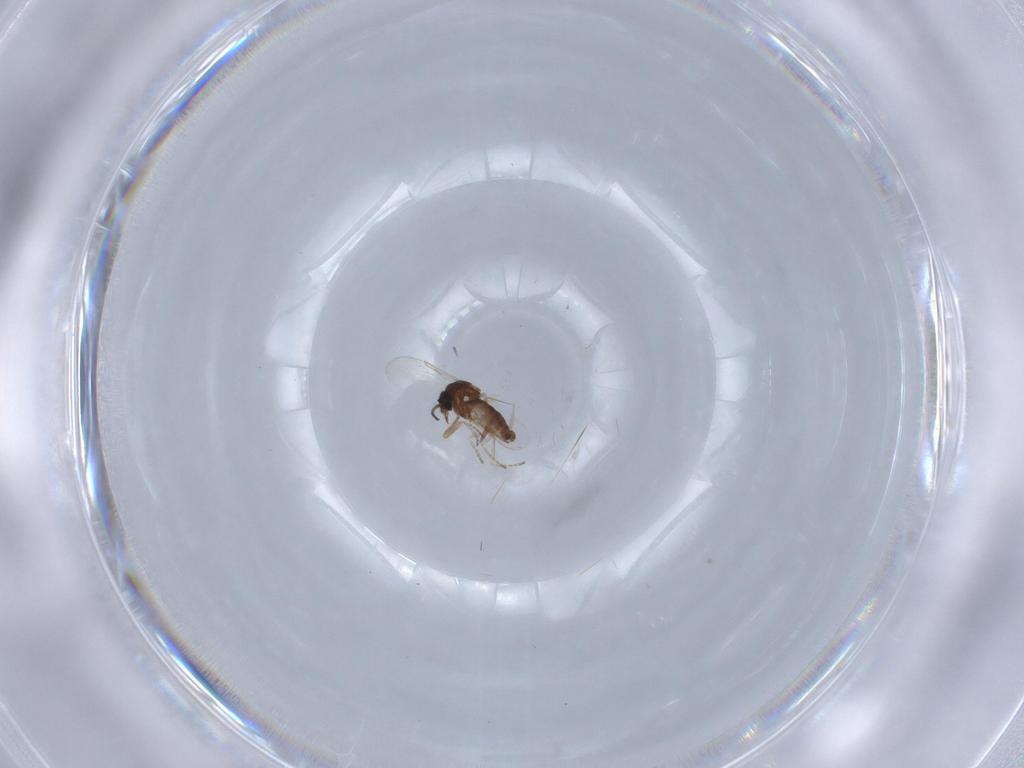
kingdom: Animalia
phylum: Arthropoda
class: Insecta
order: Diptera
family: Ceratopogonidae
